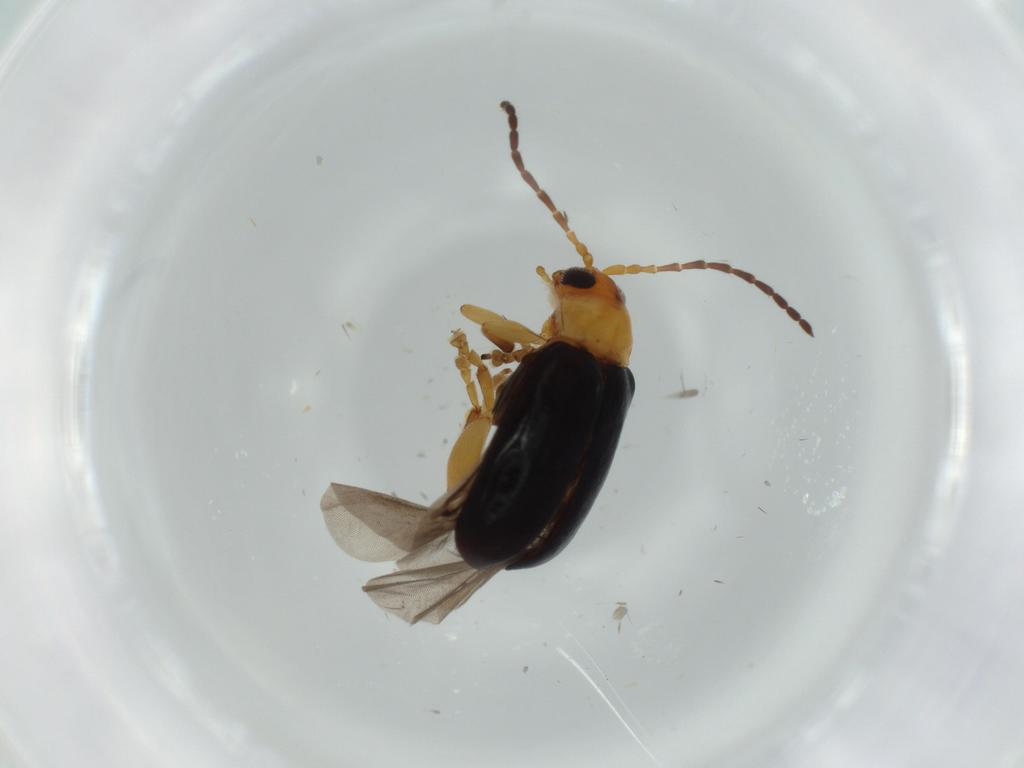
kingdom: Animalia
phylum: Arthropoda
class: Insecta
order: Coleoptera
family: Chrysomelidae
